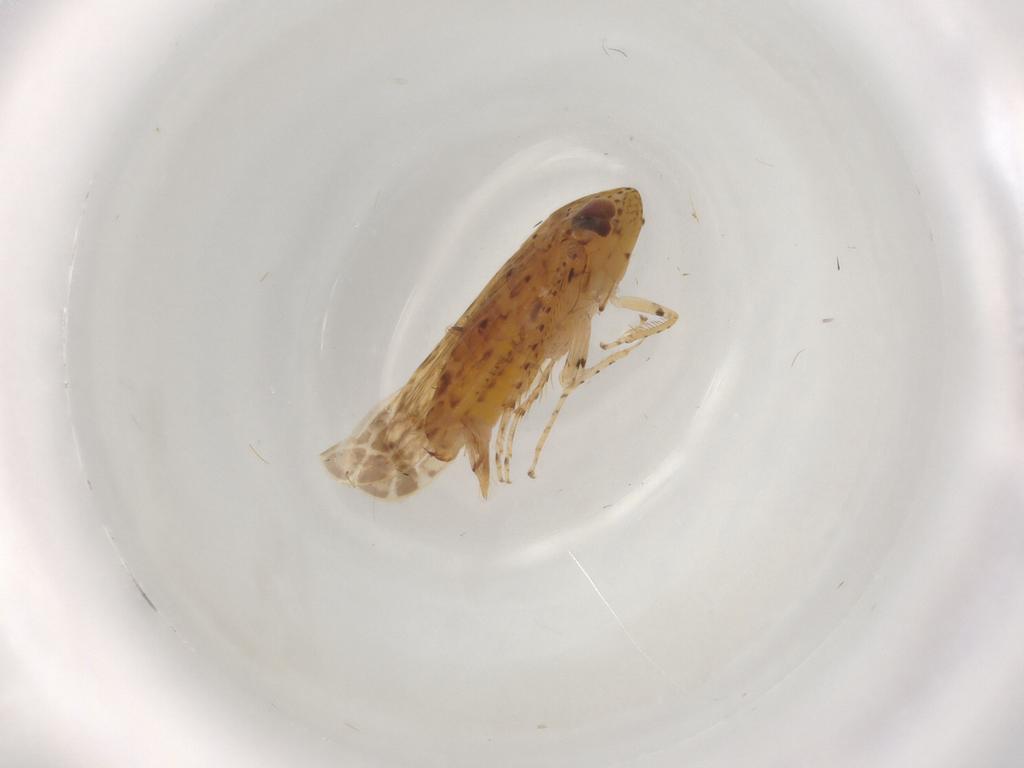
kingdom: Animalia
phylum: Arthropoda
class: Insecta
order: Hemiptera
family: Cicadellidae
